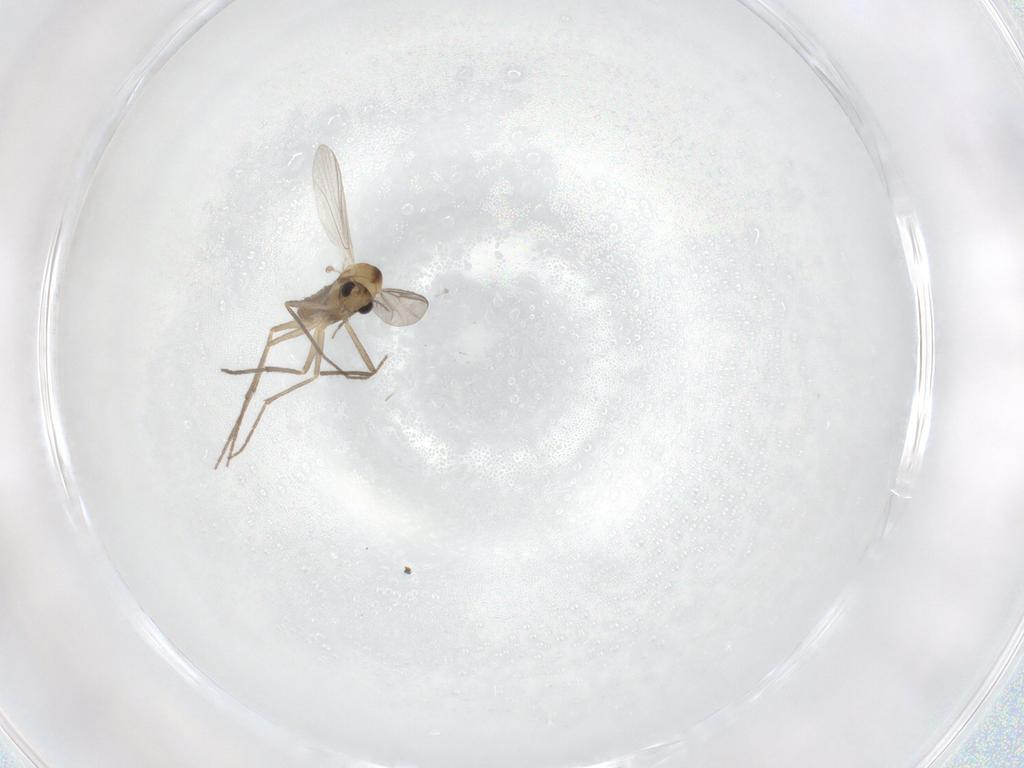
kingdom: Animalia
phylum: Arthropoda
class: Insecta
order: Diptera
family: Chironomidae
